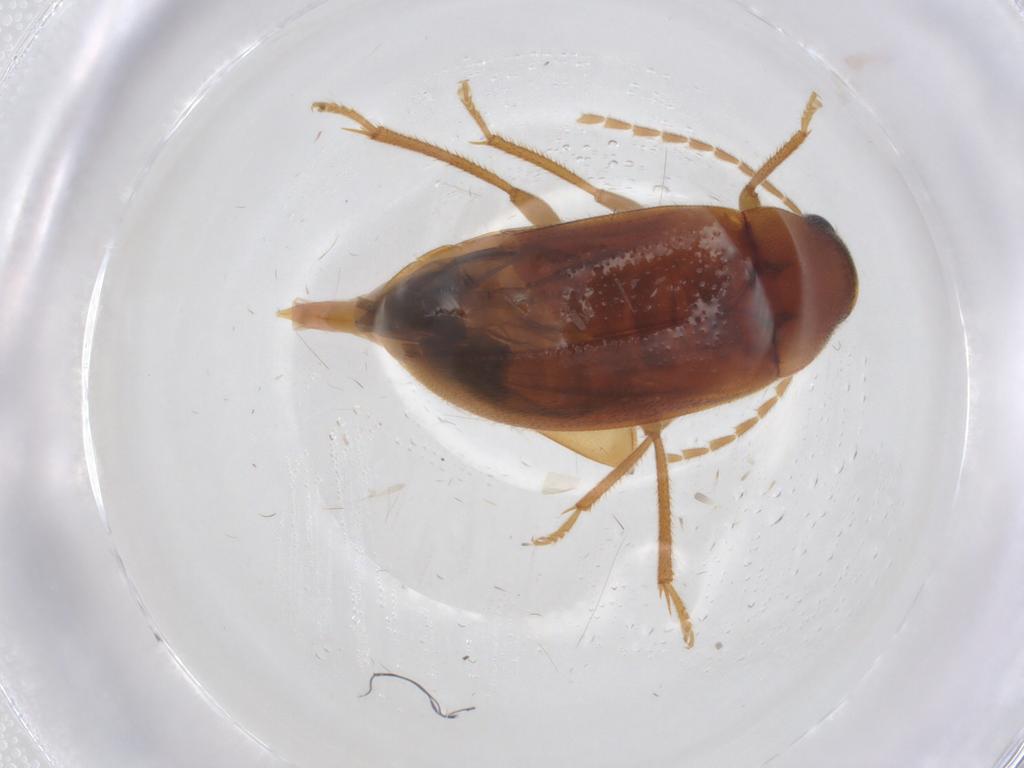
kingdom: Animalia
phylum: Arthropoda
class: Insecta
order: Coleoptera
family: Ptilodactylidae
